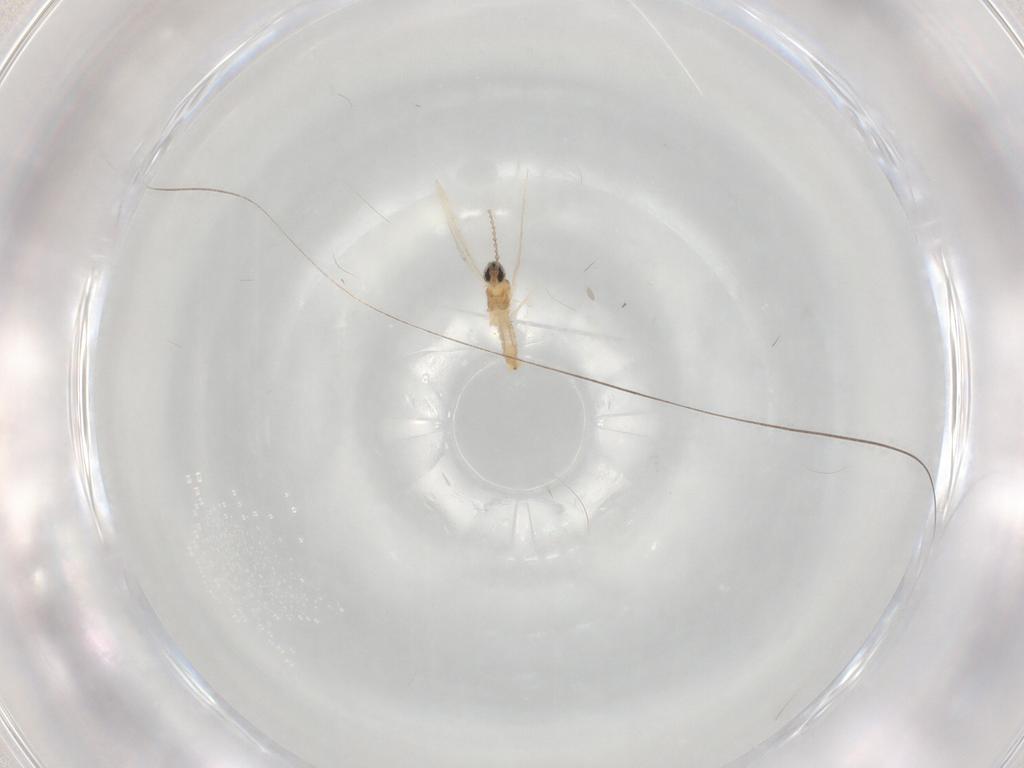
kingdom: Animalia
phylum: Arthropoda
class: Insecta
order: Diptera
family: Cecidomyiidae
